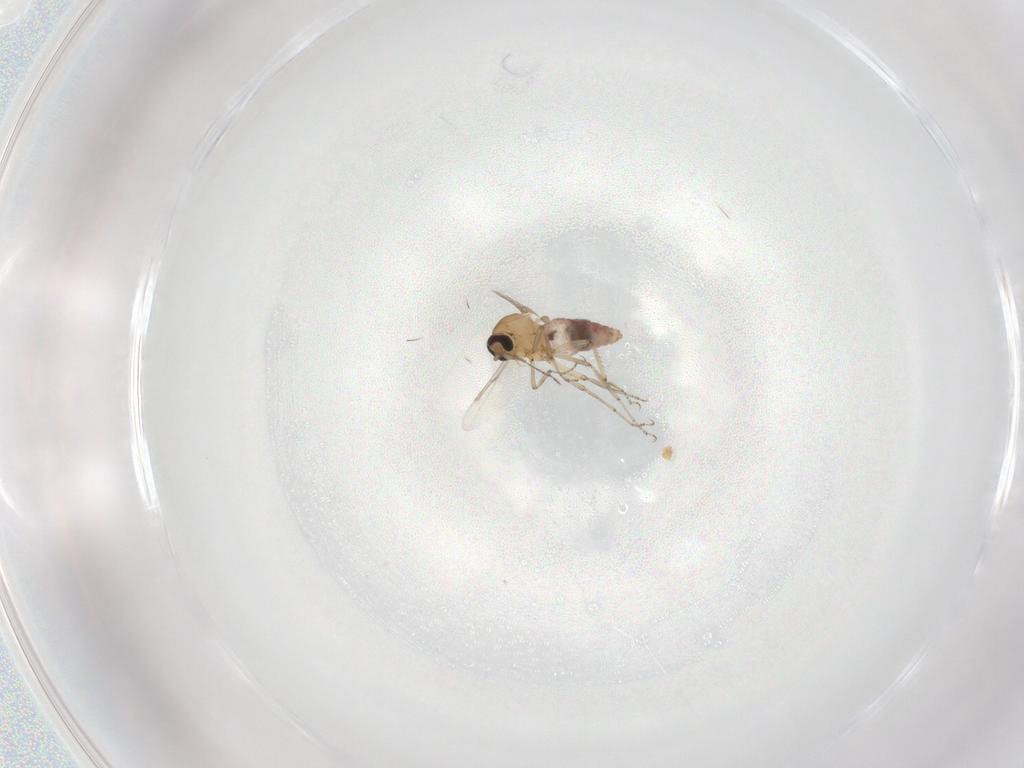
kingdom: Animalia
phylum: Arthropoda
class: Insecta
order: Diptera
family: Ceratopogonidae
